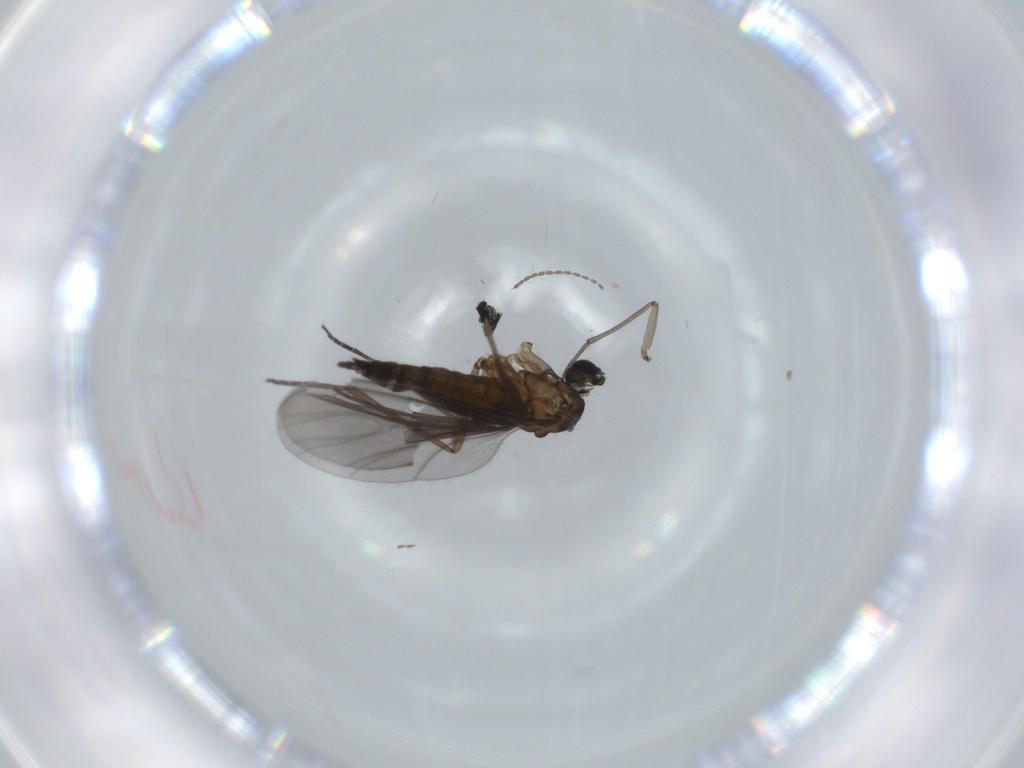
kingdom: Animalia
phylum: Arthropoda
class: Insecta
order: Diptera
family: Sciaridae
